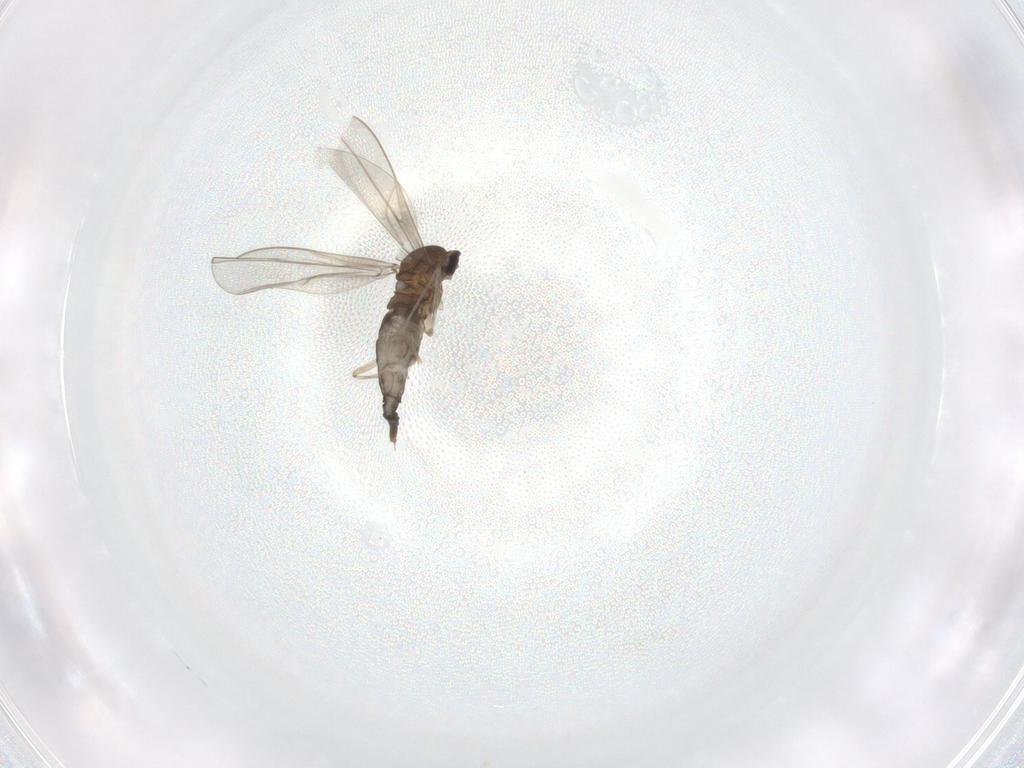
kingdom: Animalia
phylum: Arthropoda
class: Insecta
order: Diptera
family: Cecidomyiidae
